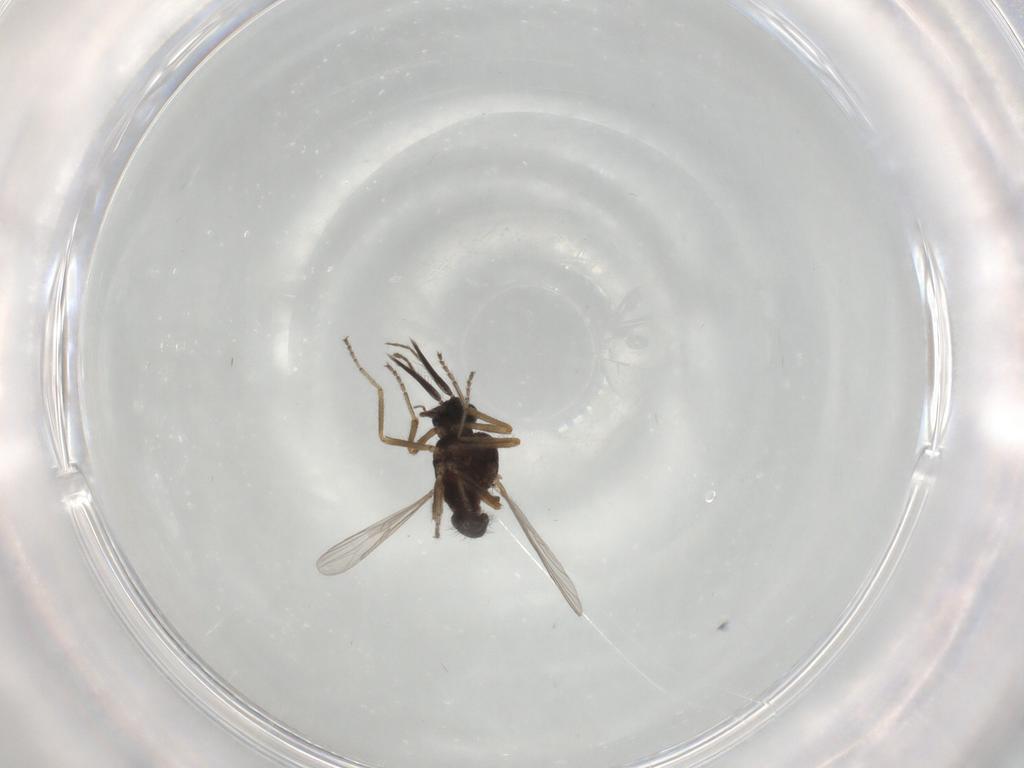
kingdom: Animalia
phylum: Arthropoda
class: Insecta
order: Diptera
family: Ceratopogonidae
